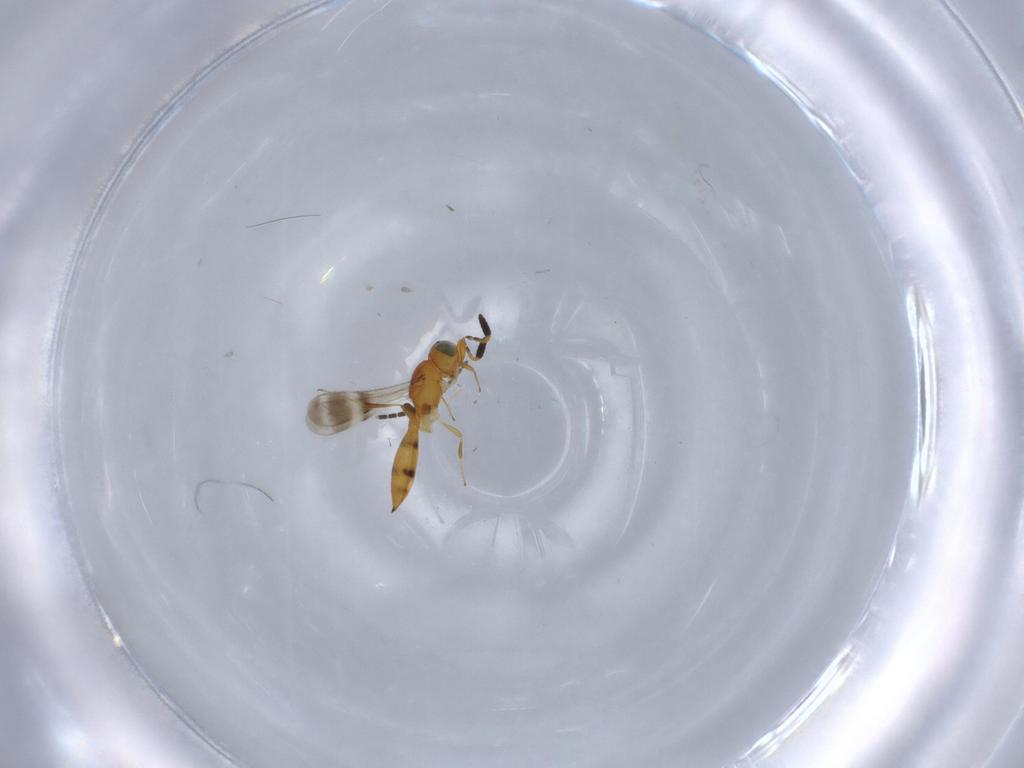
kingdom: Animalia
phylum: Arthropoda
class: Insecta
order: Hymenoptera
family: Scelionidae
